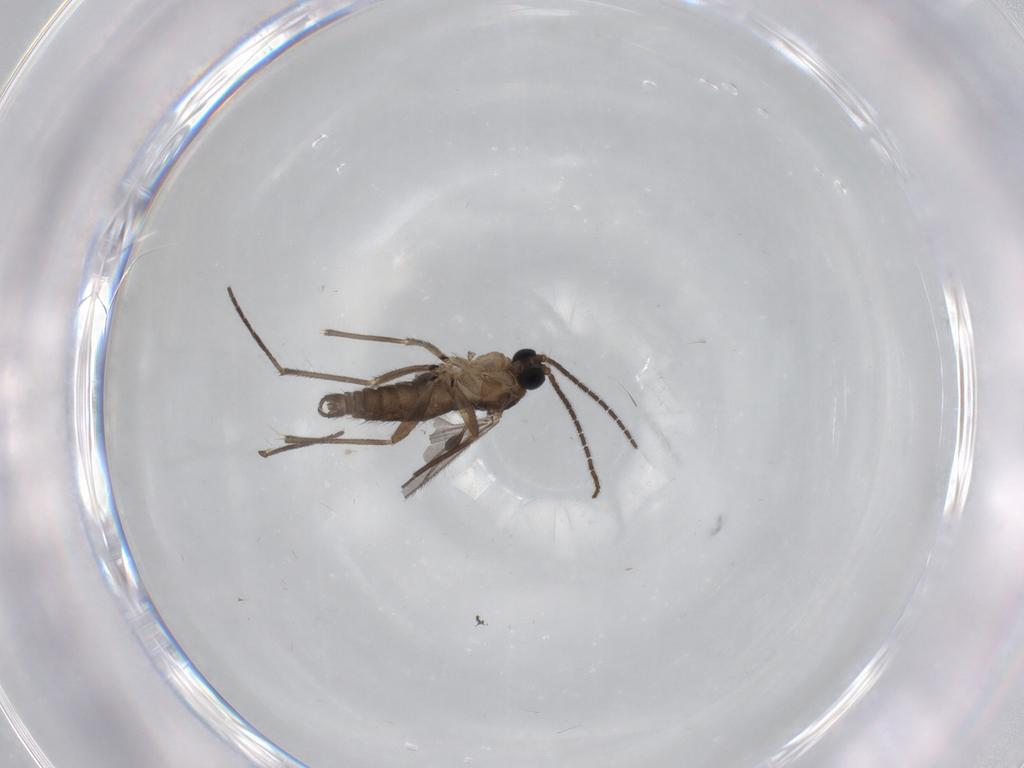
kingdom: Animalia
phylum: Arthropoda
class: Insecta
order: Diptera
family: Sciaridae
